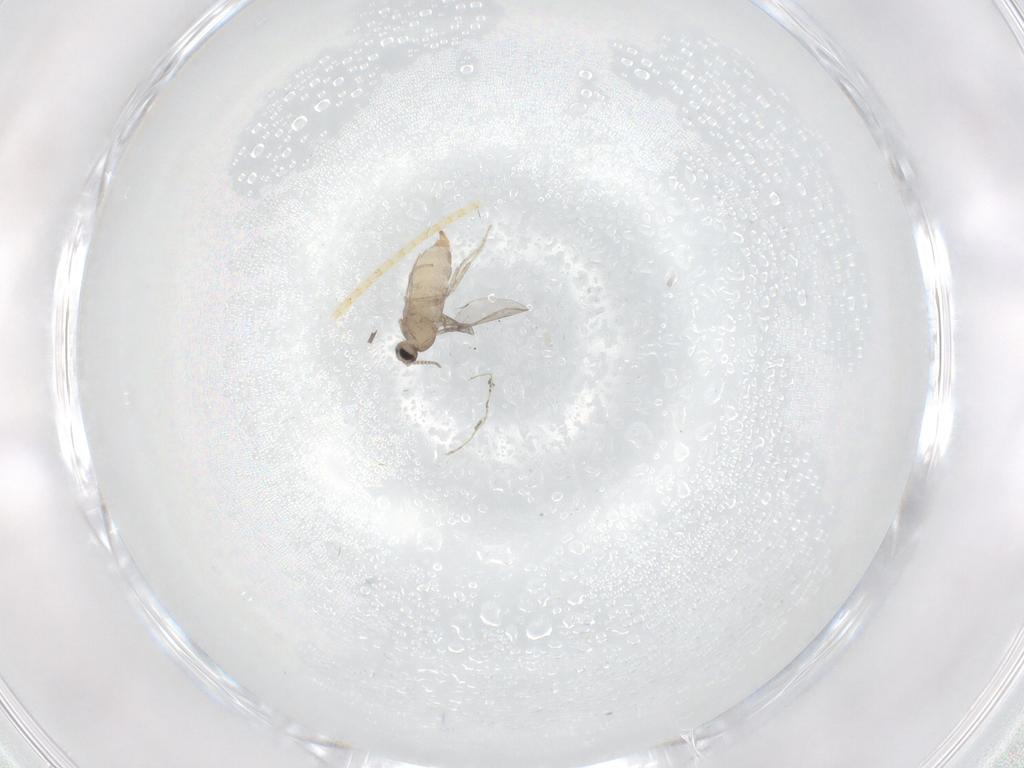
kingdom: Animalia
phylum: Arthropoda
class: Insecta
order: Diptera
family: Cecidomyiidae
